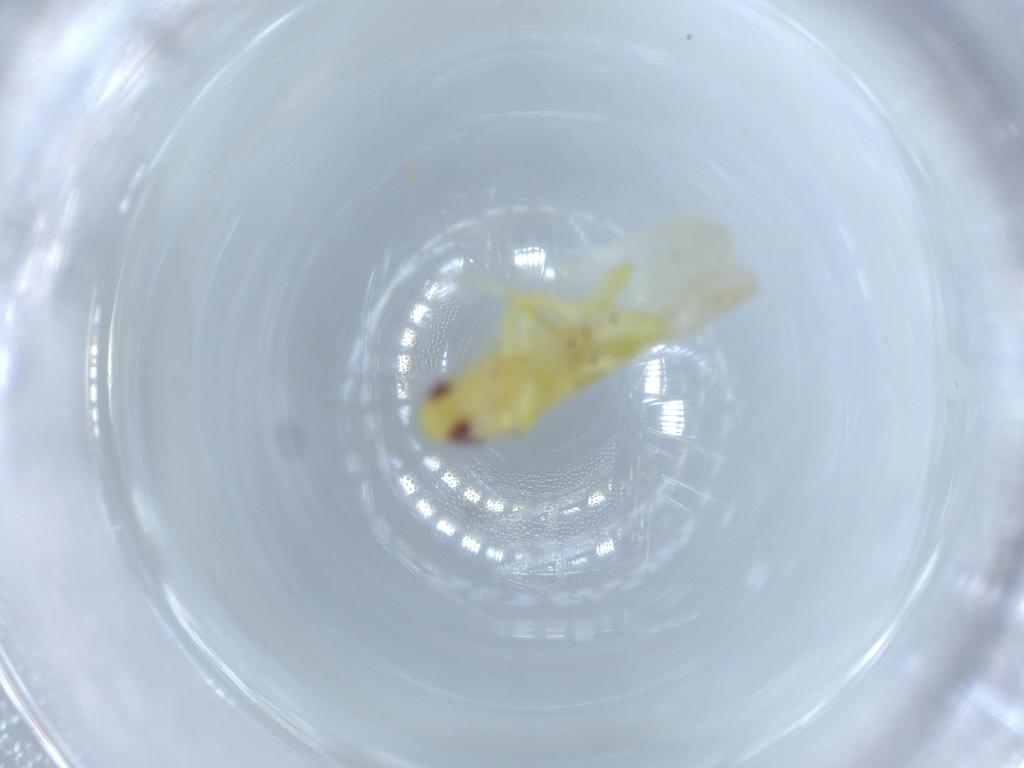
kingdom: Animalia
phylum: Arthropoda
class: Insecta
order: Hemiptera
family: Cicadellidae
